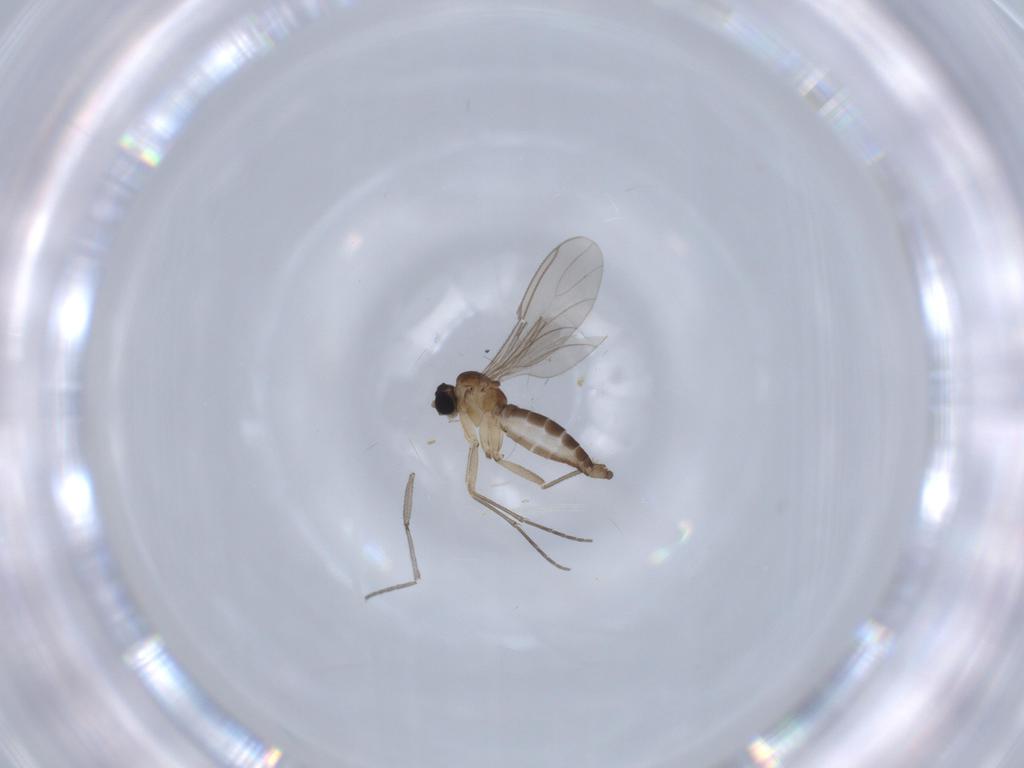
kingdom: Animalia
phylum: Arthropoda
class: Insecta
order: Diptera
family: Sciaridae
